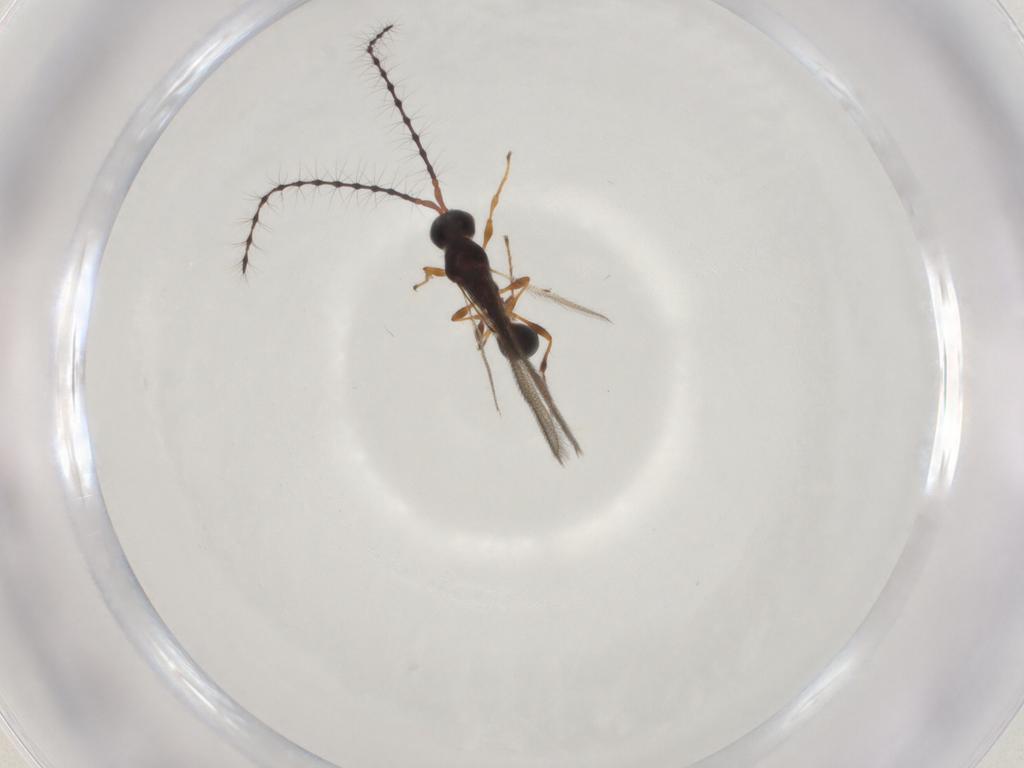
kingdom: Animalia
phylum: Arthropoda
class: Insecta
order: Hymenoptera
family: Diapriidae
